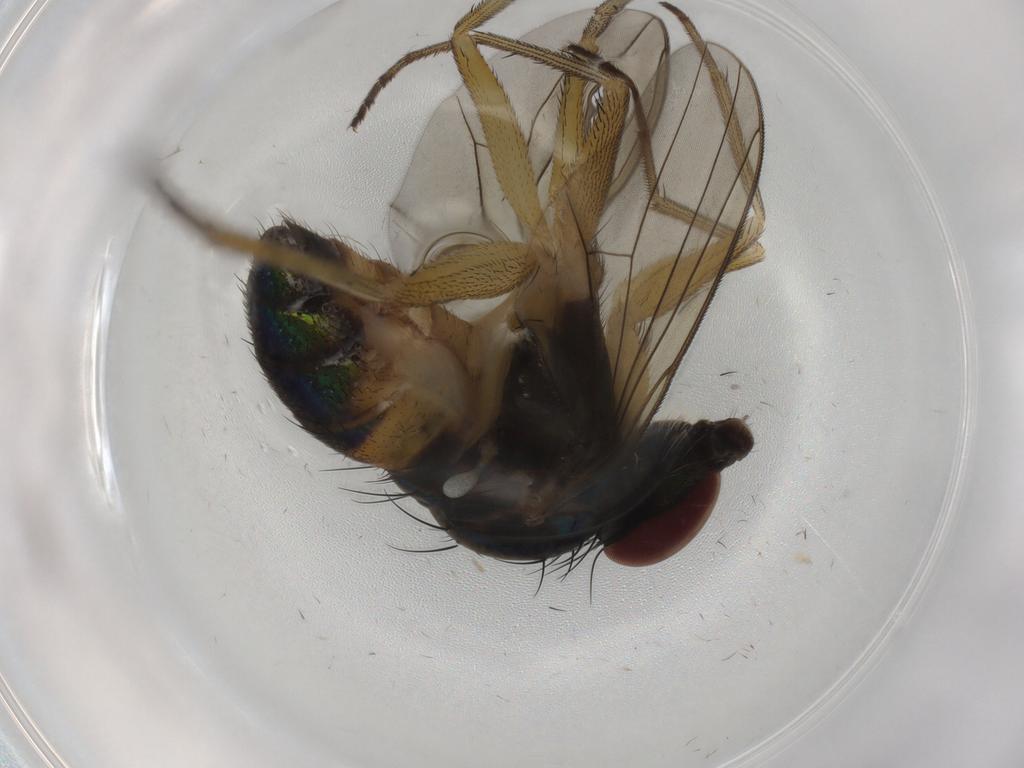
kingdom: Animalia
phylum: Arthropoda
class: Insecta
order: Diptera
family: Dolichopodidae
